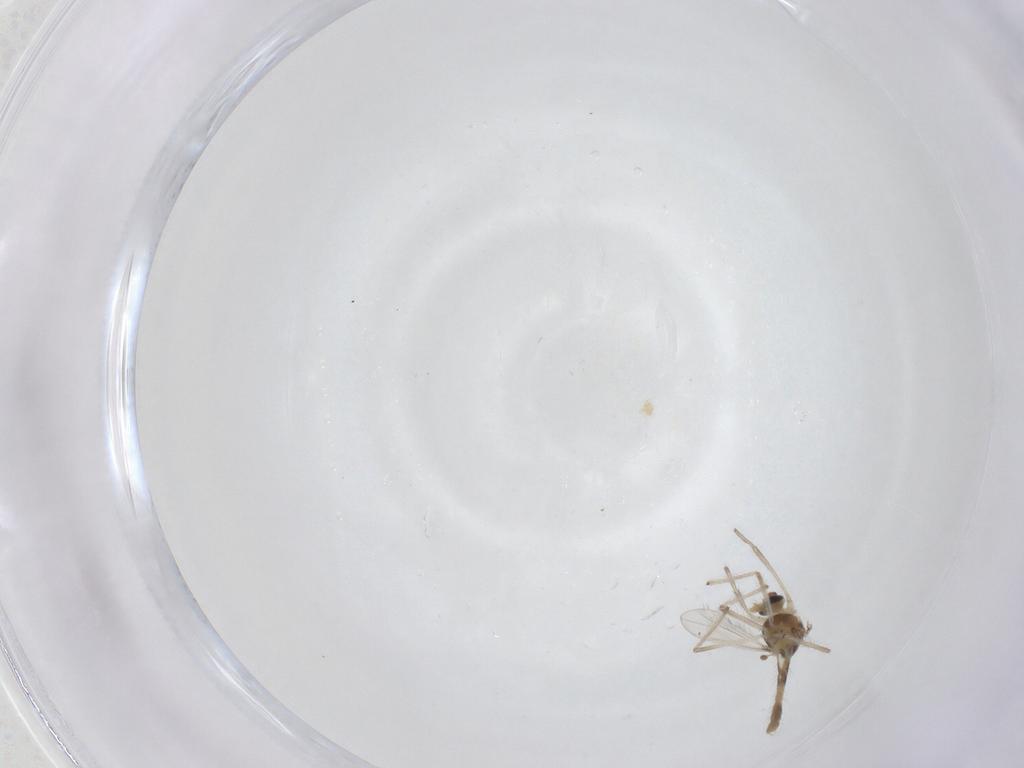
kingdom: Animalia
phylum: Arthropoda
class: Insecta
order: Diptera
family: Chironomidae
